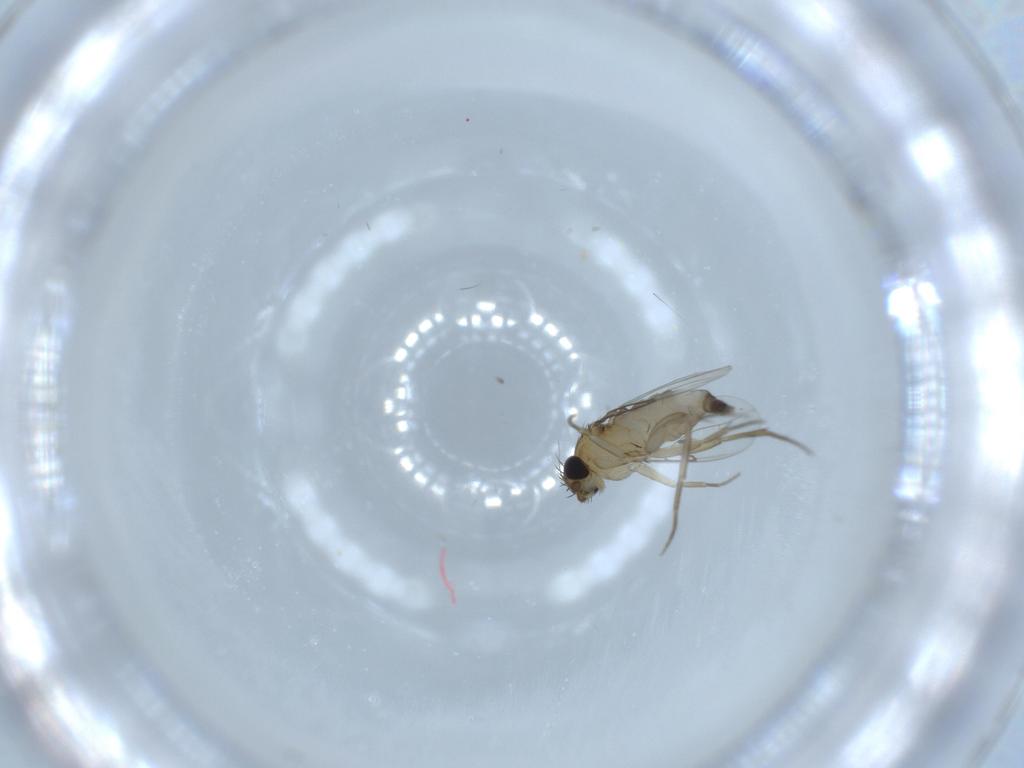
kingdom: Animalia
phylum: Arthropoda
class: Insecta
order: Diptera
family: Phoridae
